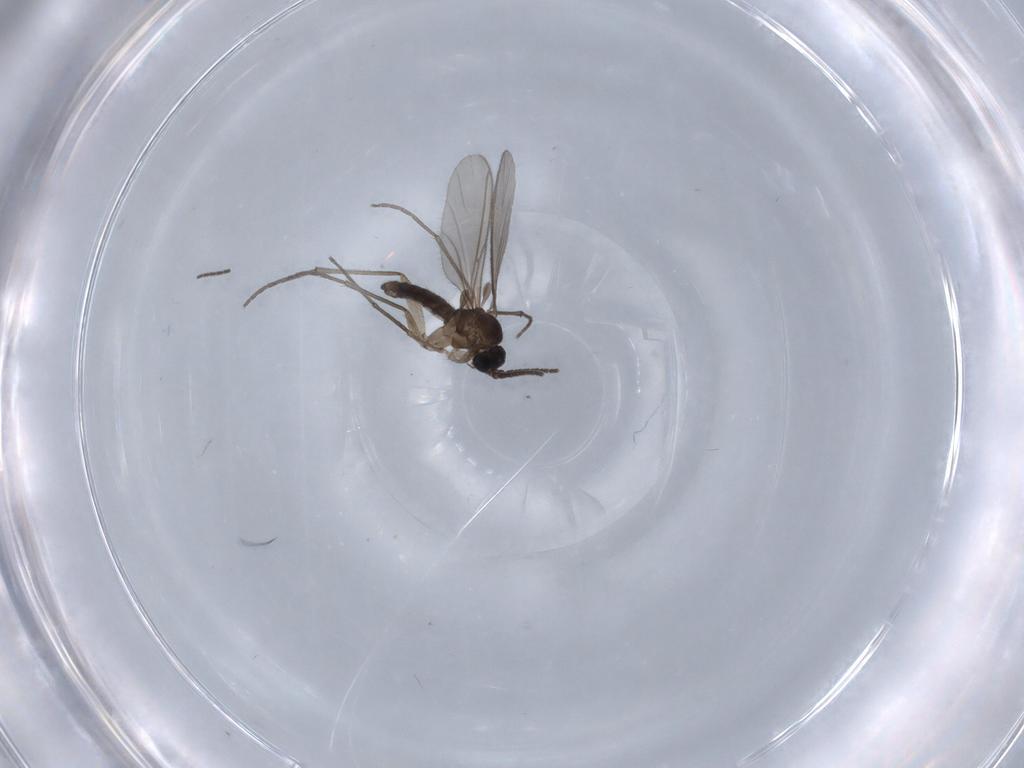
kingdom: Animalia
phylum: Arthropoda
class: Insecta
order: Diptera
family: Sciaridae
